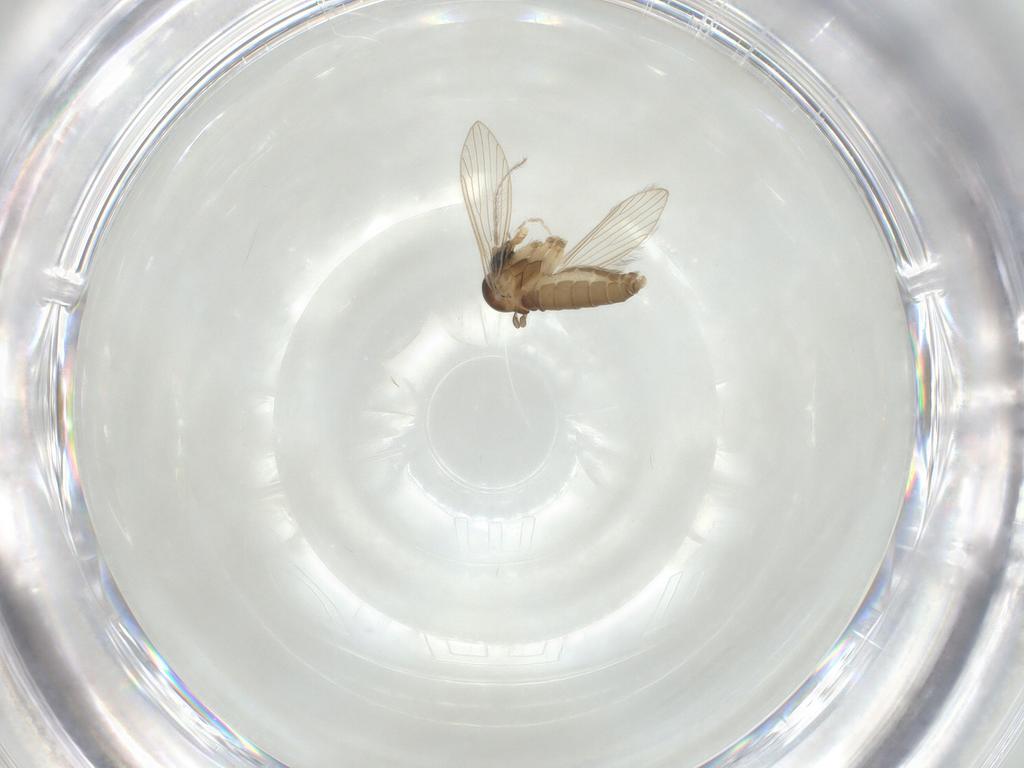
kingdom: Animalia
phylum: Arthropoda
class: Insecta
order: Diptera
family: Psychodidae
